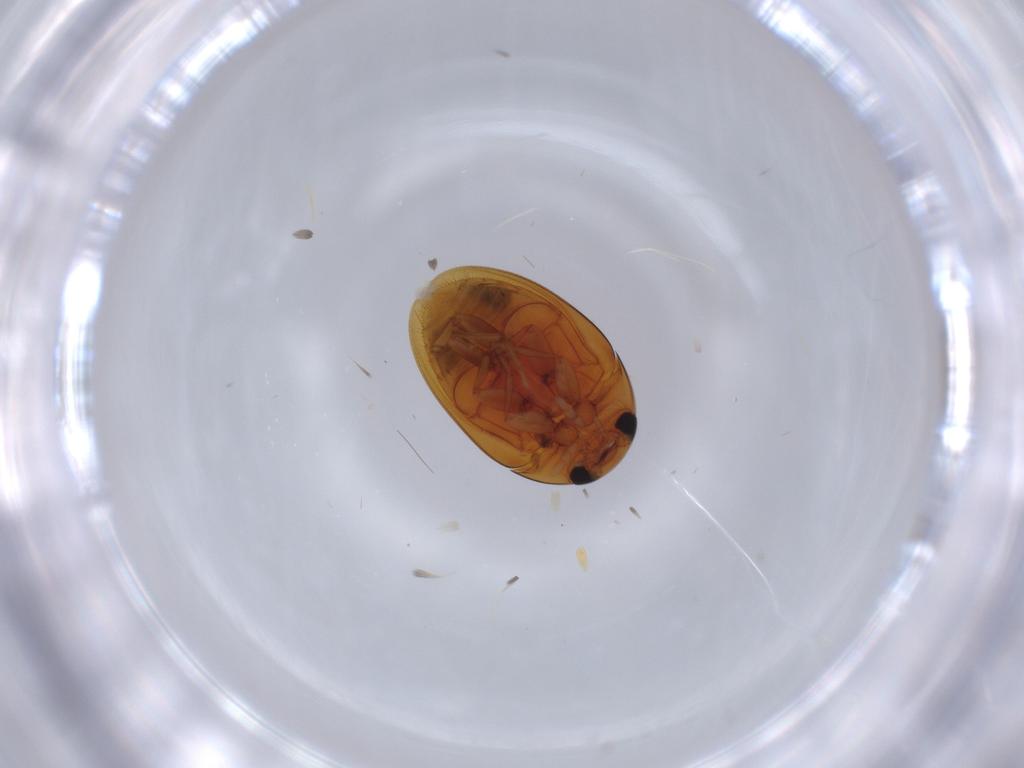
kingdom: Animalia
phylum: Arthropoda
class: Insecta
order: Coleoptera
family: Phalacridae
